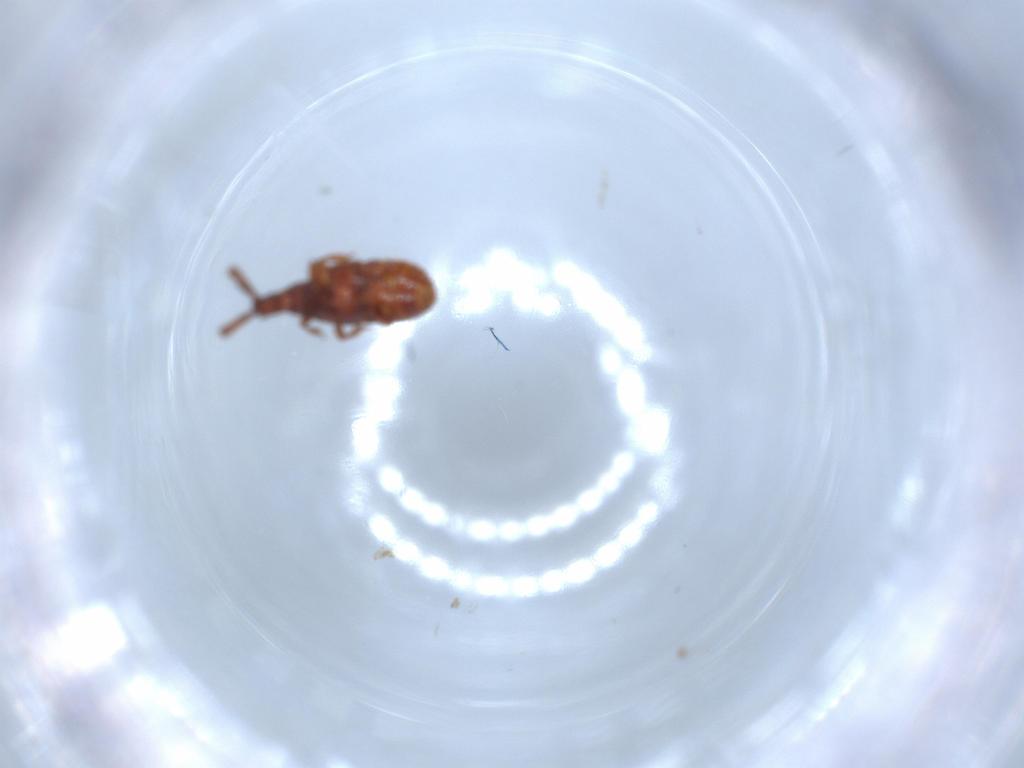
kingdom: Animalia
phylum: Arthropoda
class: Insecta
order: Coleoptera
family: Staphylinidae
